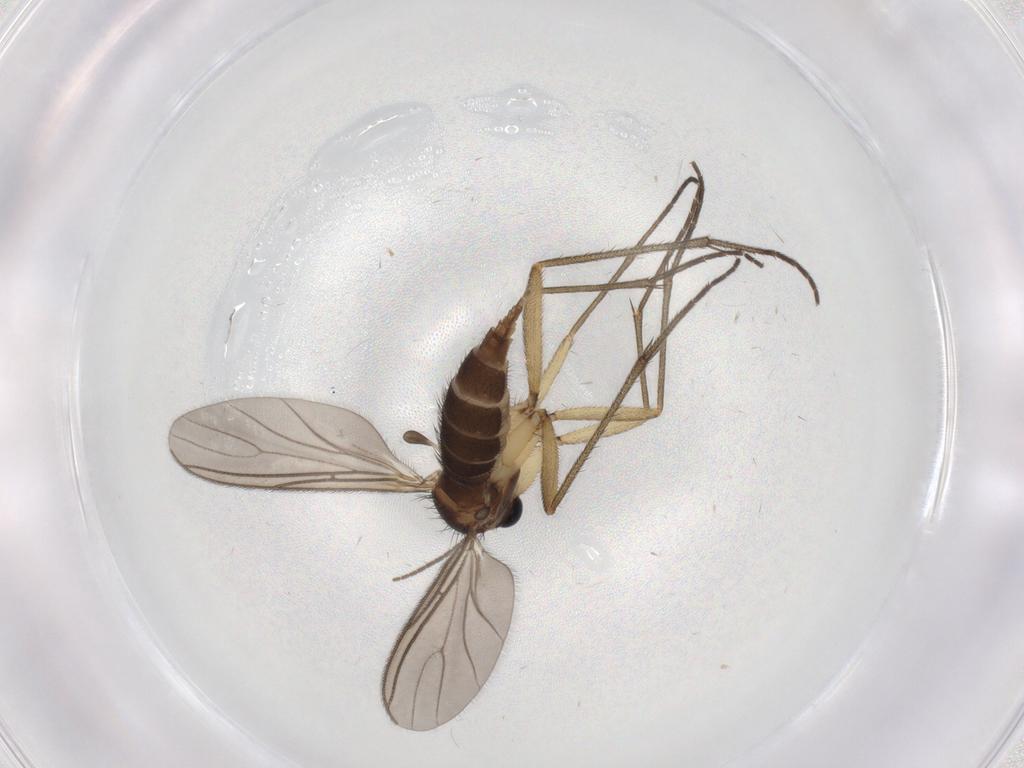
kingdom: Animalia
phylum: Arthropoda
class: Insecta
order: Diptera
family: Sciaridae
